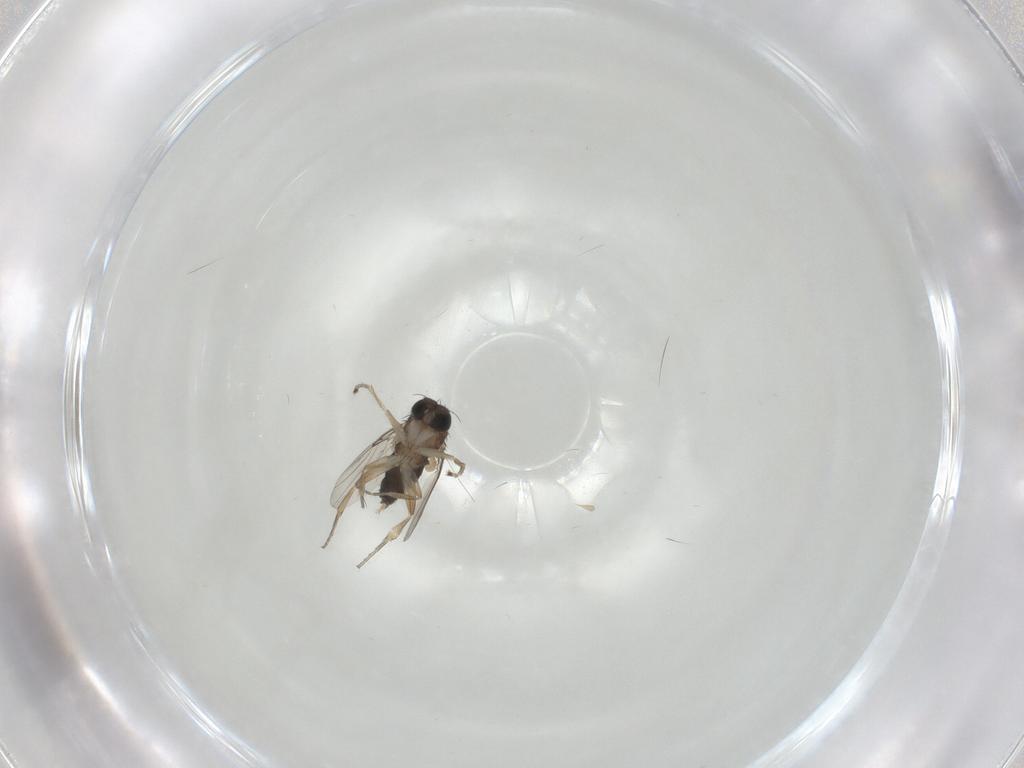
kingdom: Animalia
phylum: Arthropoda
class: Insecta
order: Diptera
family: Phoridae
